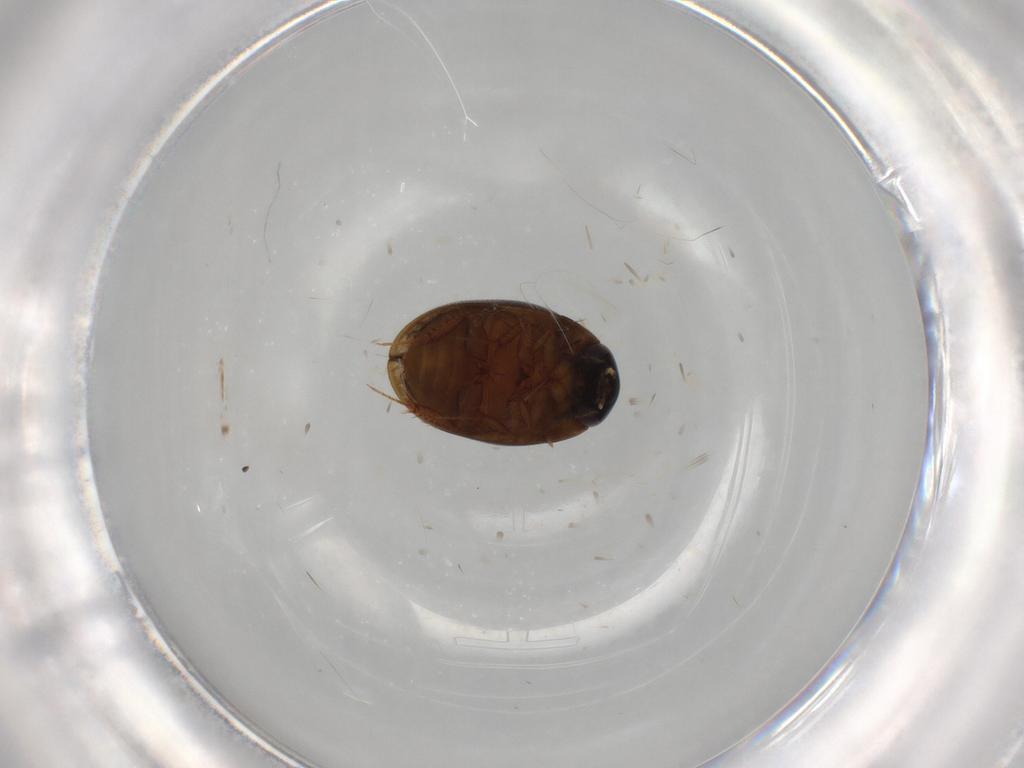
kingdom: Animalia
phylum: Arthropoda
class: Insecta
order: Coleoptera
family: Hydrophilidae
